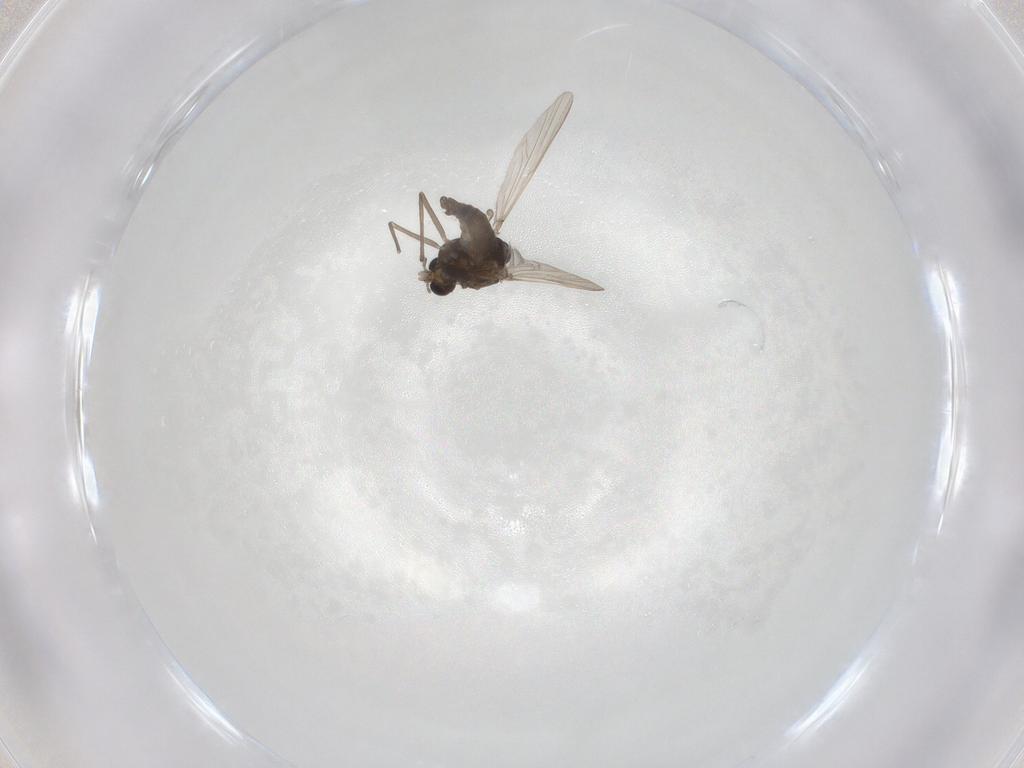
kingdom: Animalia
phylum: Arthropoda
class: Insecta
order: Diptera
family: Chironomidae
